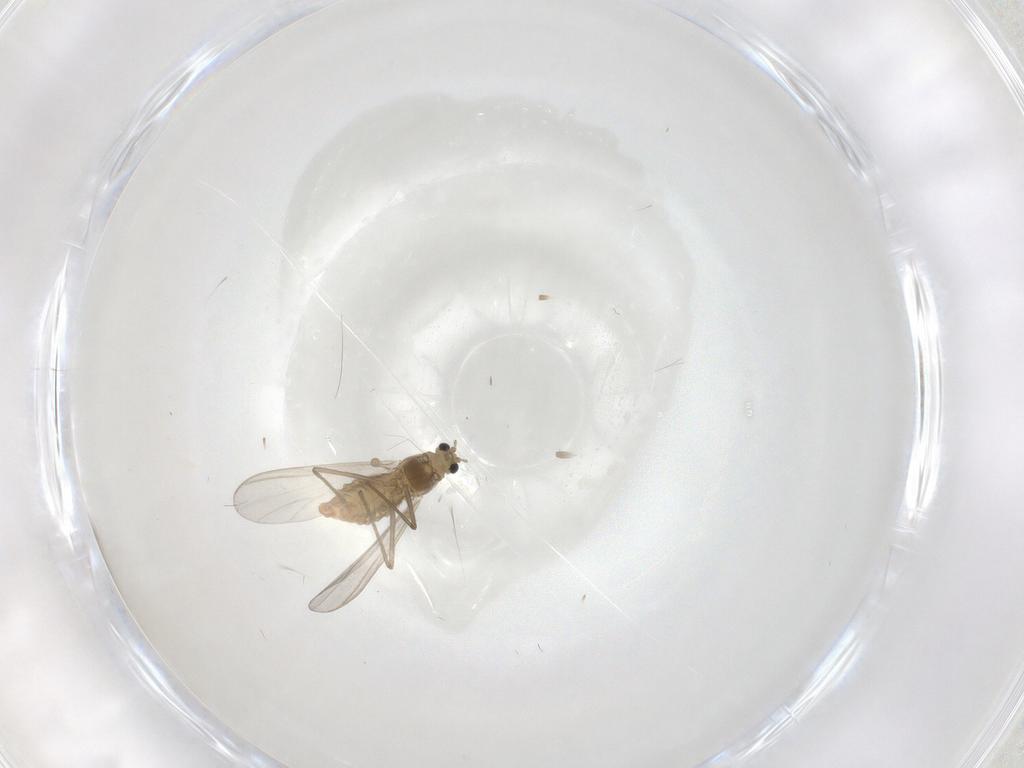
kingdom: Animalia
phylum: Arthropoda
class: Insecta
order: Diptera
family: Chironomidae
